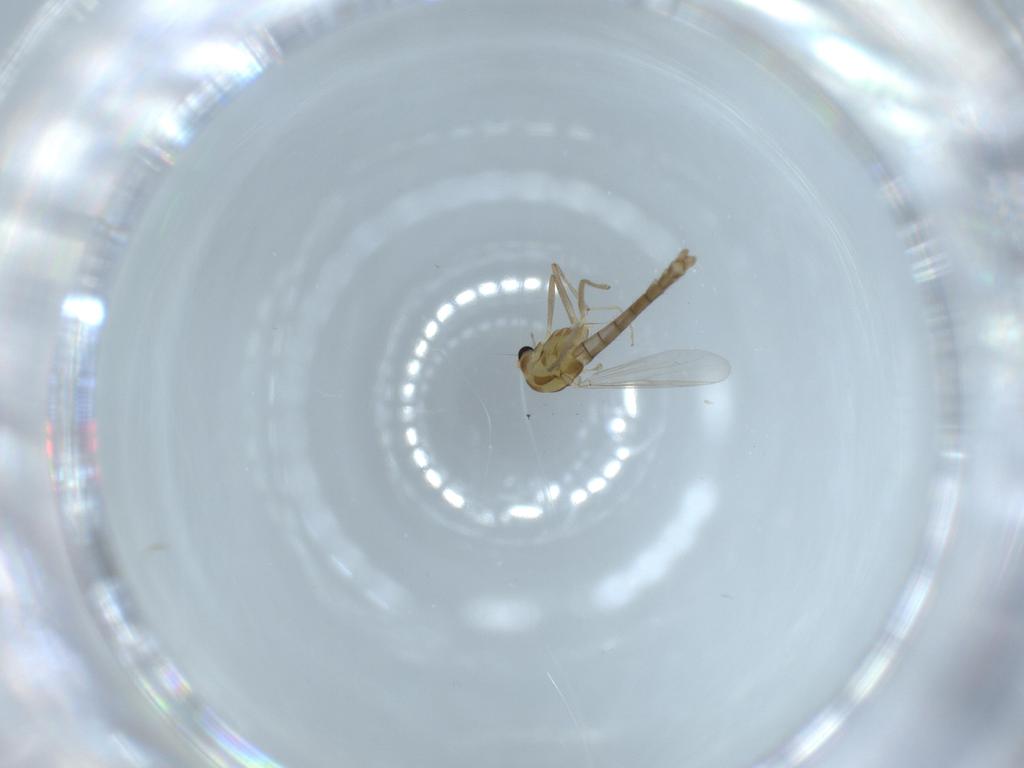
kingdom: Animalia
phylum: Arthropoda
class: Insecta
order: Diptera
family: Chironomidae
